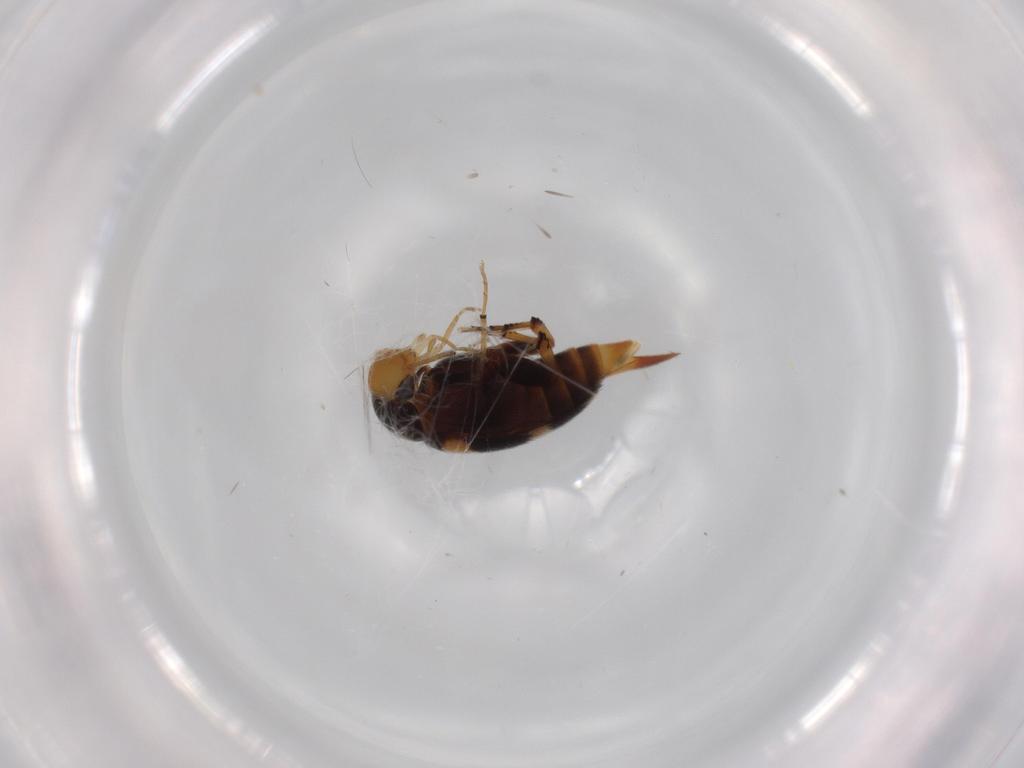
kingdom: Animalia
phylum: Arthropoda
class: Insecta
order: Coleoptera
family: Mordellidae
